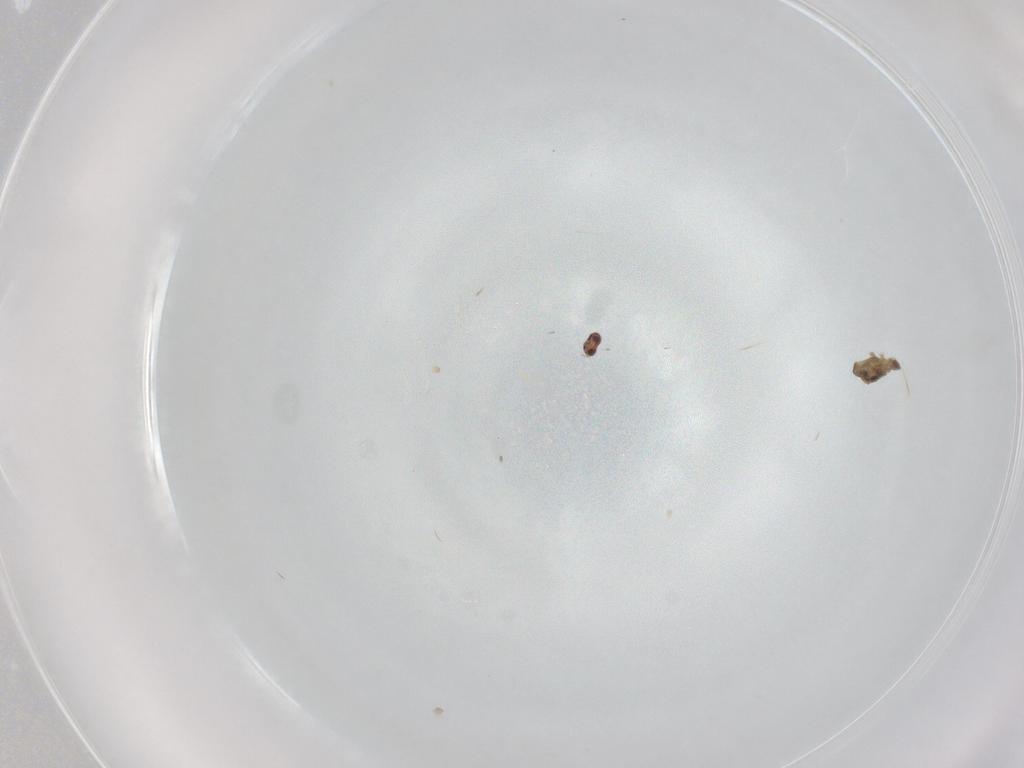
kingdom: Animalia
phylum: Arthropoda
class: Insecta
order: Diptera
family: Cecidomyiidae
